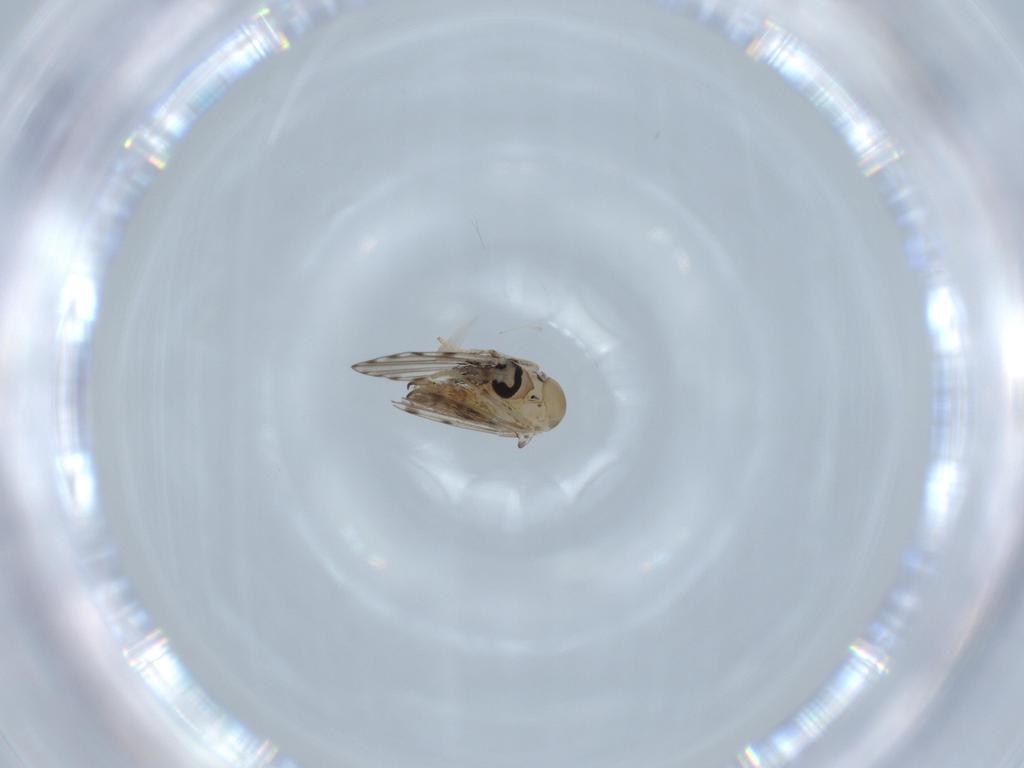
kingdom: Animalia
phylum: Arthropoda
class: Insecta
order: Diptera
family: Psychodidae
